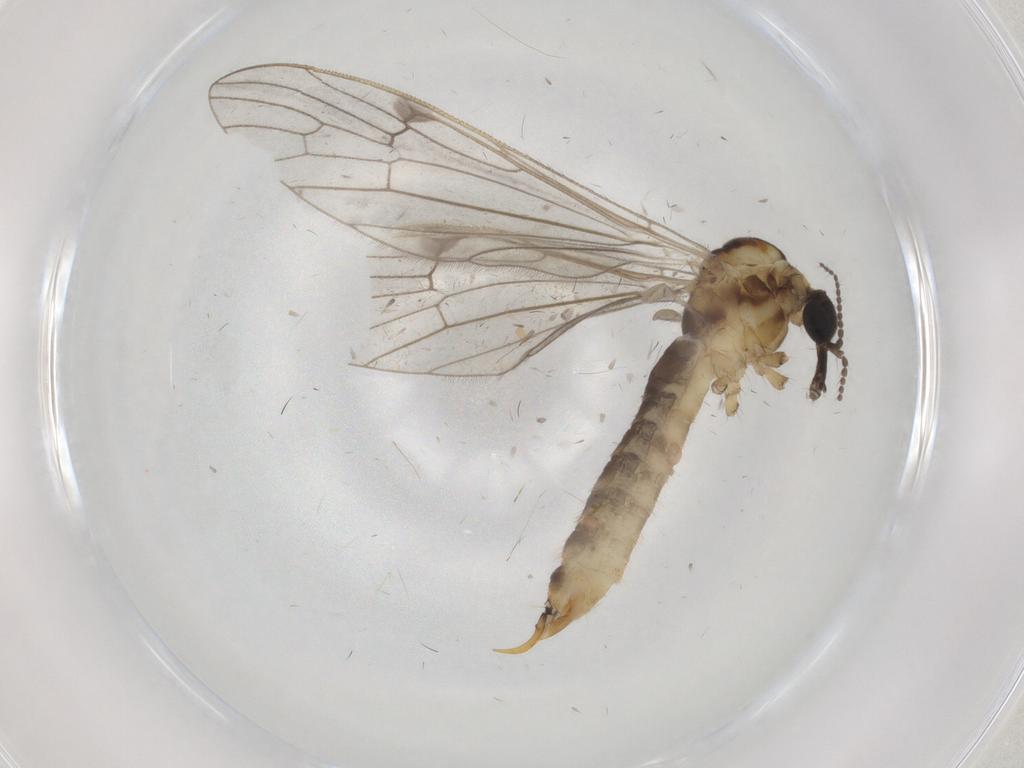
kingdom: Animalia
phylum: Arthropoda
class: Insecta
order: Diptera
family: Limoniidae
